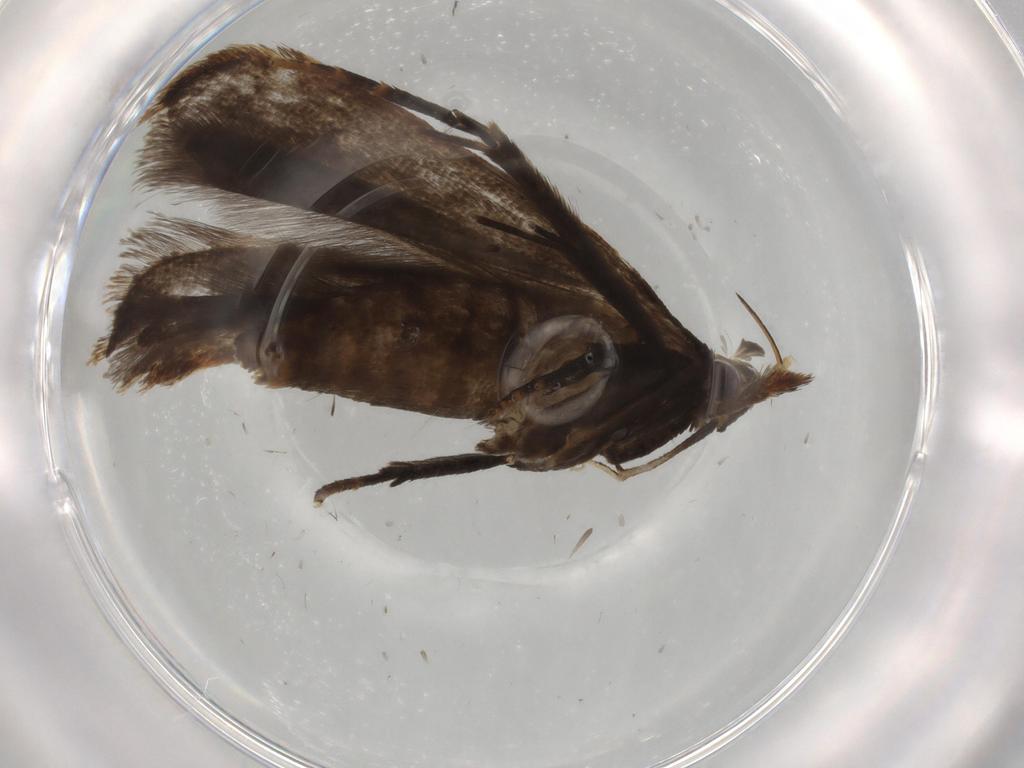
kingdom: Animalia
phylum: Arthropoda
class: Insecta
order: Lepidoptera
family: Gelechiidae
